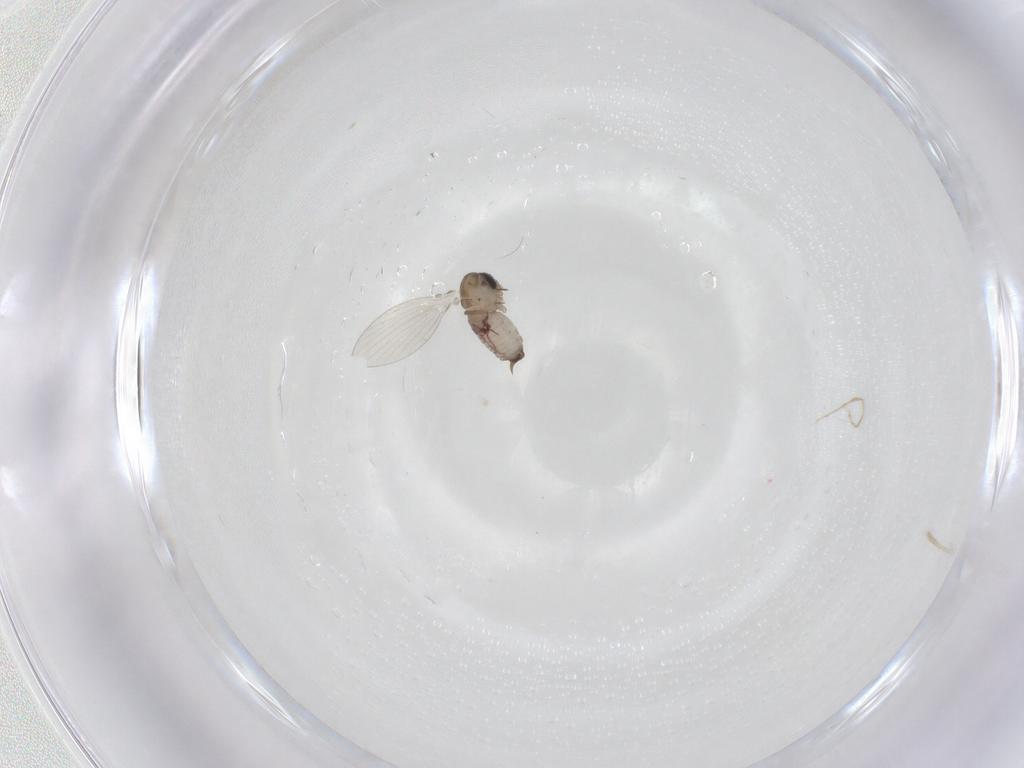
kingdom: Animalia
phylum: Arthropoda
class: Insecta
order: Diptera
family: Psychodidae
